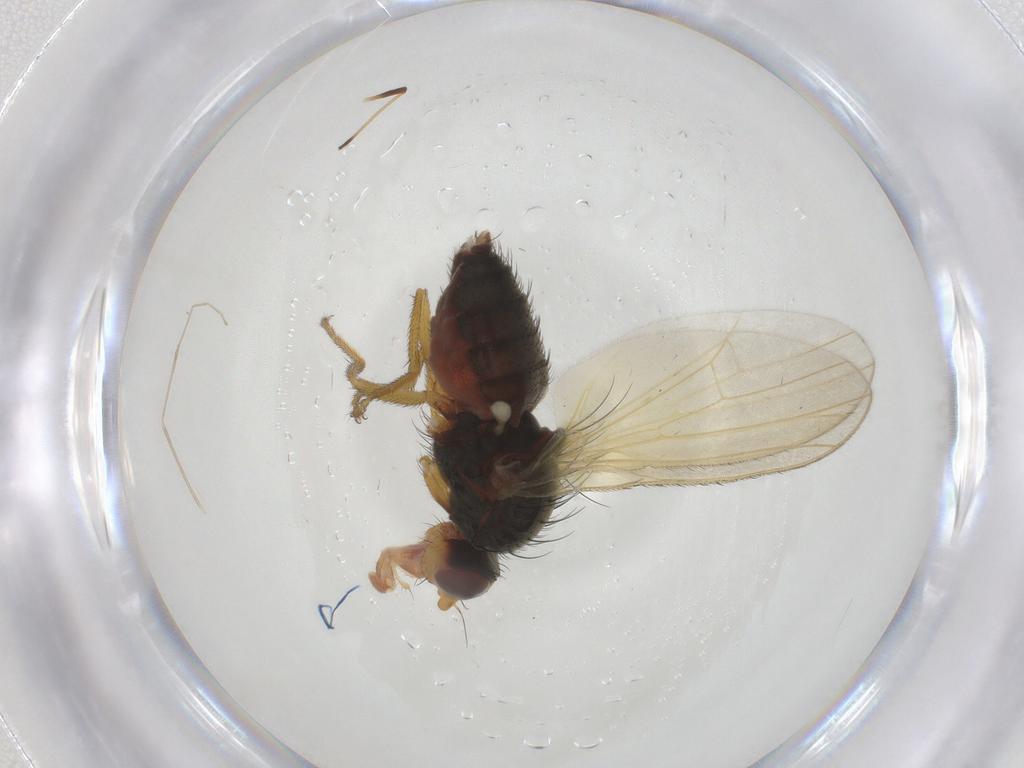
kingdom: Animalia
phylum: Arthropoda
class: Insecta
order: Diptera
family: Heleomyzidae
